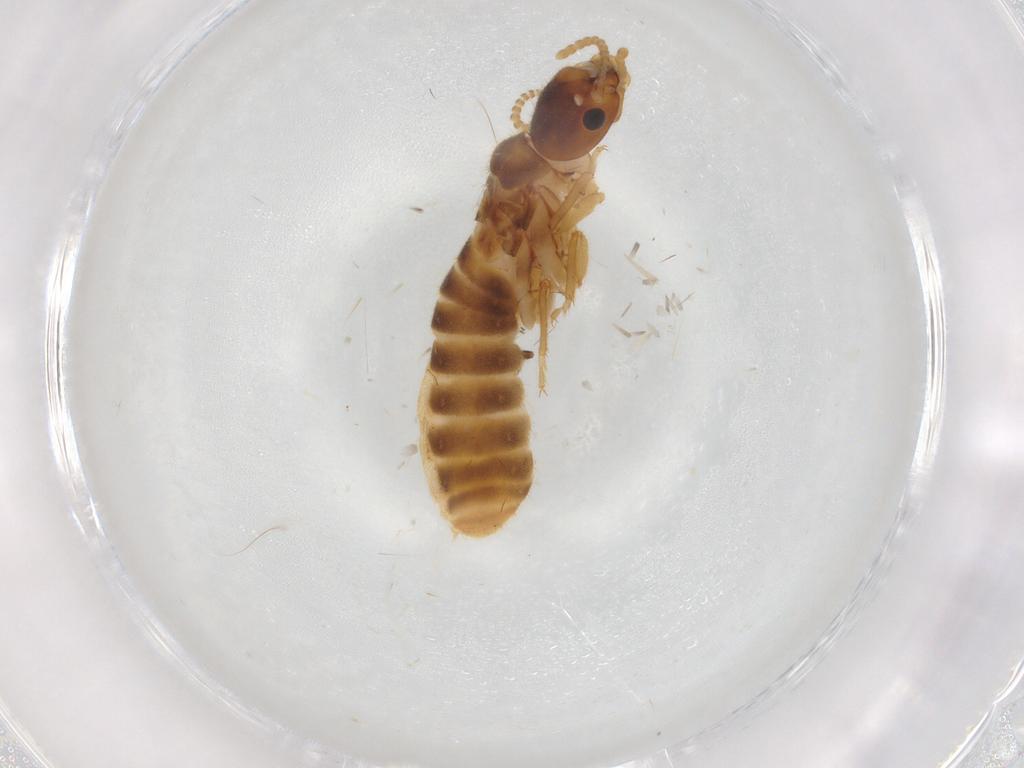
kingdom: Animalia
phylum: Arthropoda
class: Insecta
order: Blattodea
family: Termitidae
